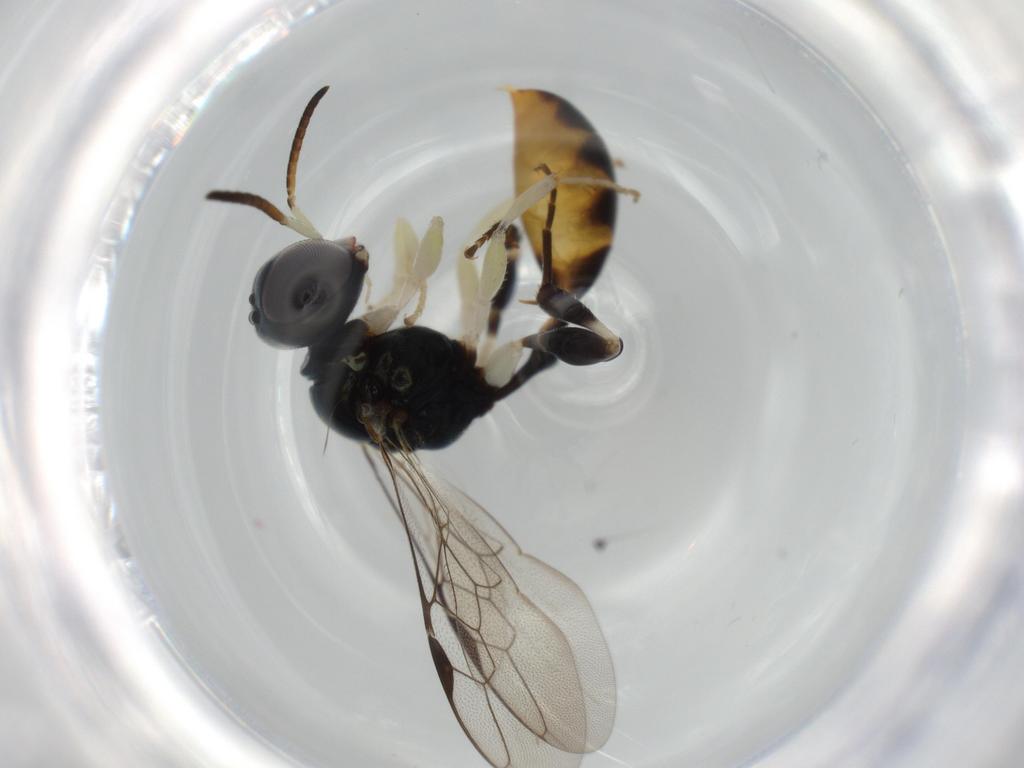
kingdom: Animalia
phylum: Arthropoda
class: Insecta
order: Hymenoptera
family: Crabronidae
